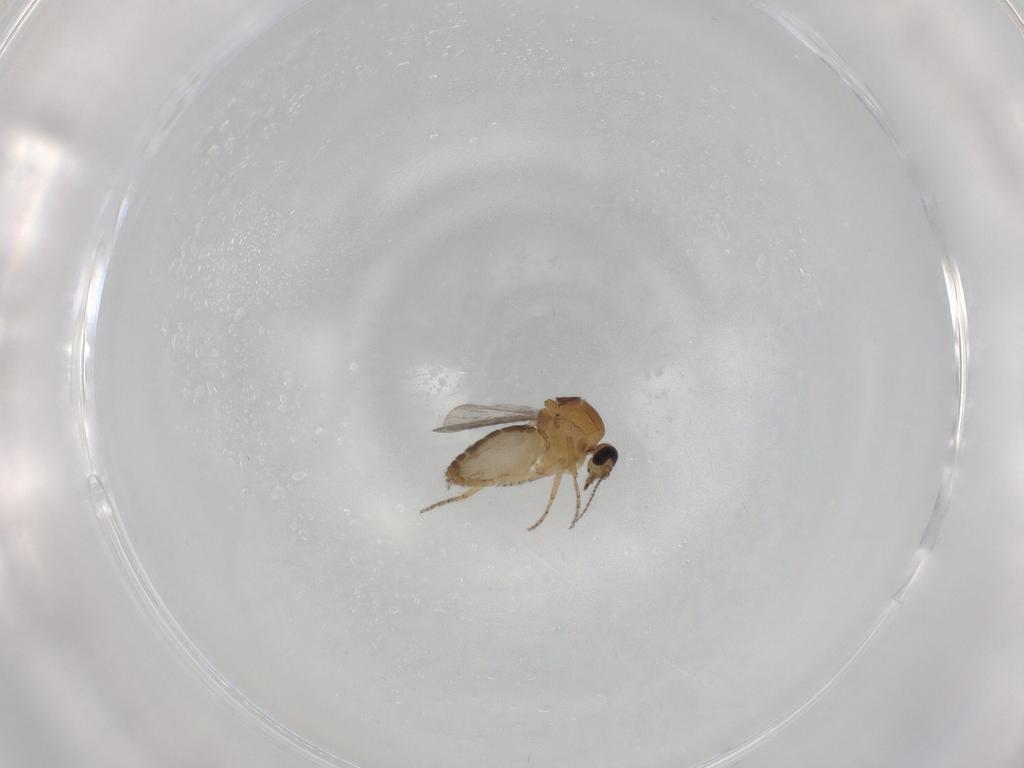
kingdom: Animalia
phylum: Arthropoda
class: Insecta
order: Diptera
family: Ceratopogonidae
